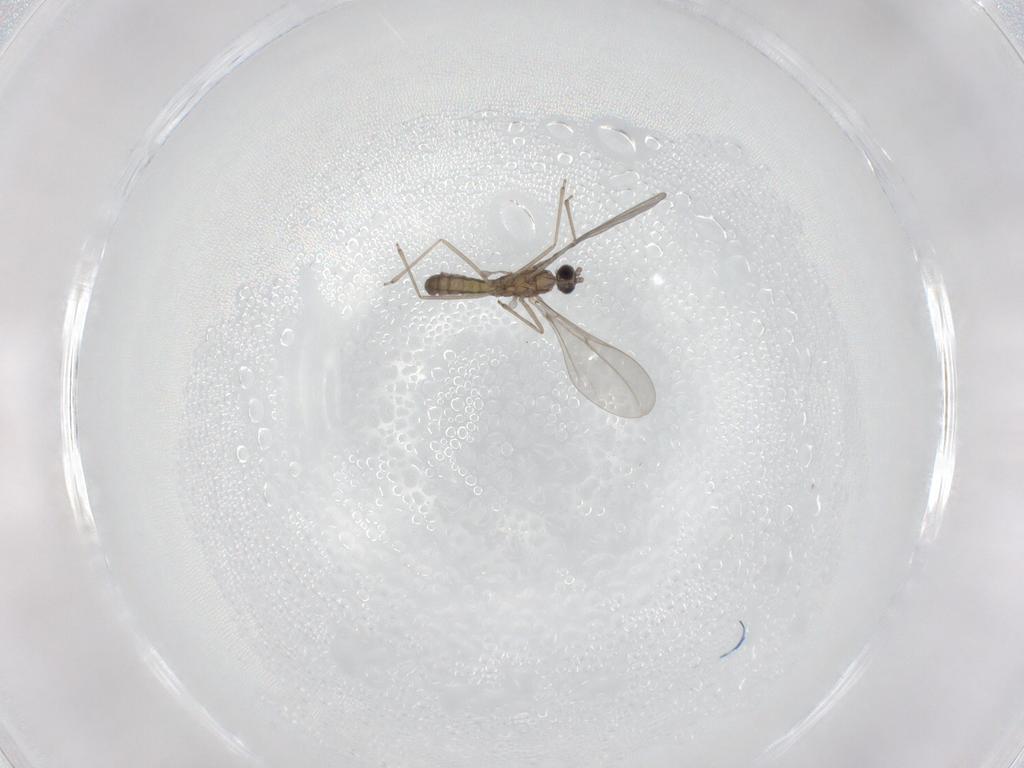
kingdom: Animalia
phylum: Arthropoda
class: Insecta
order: Diptera
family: Cecidomyiidae
